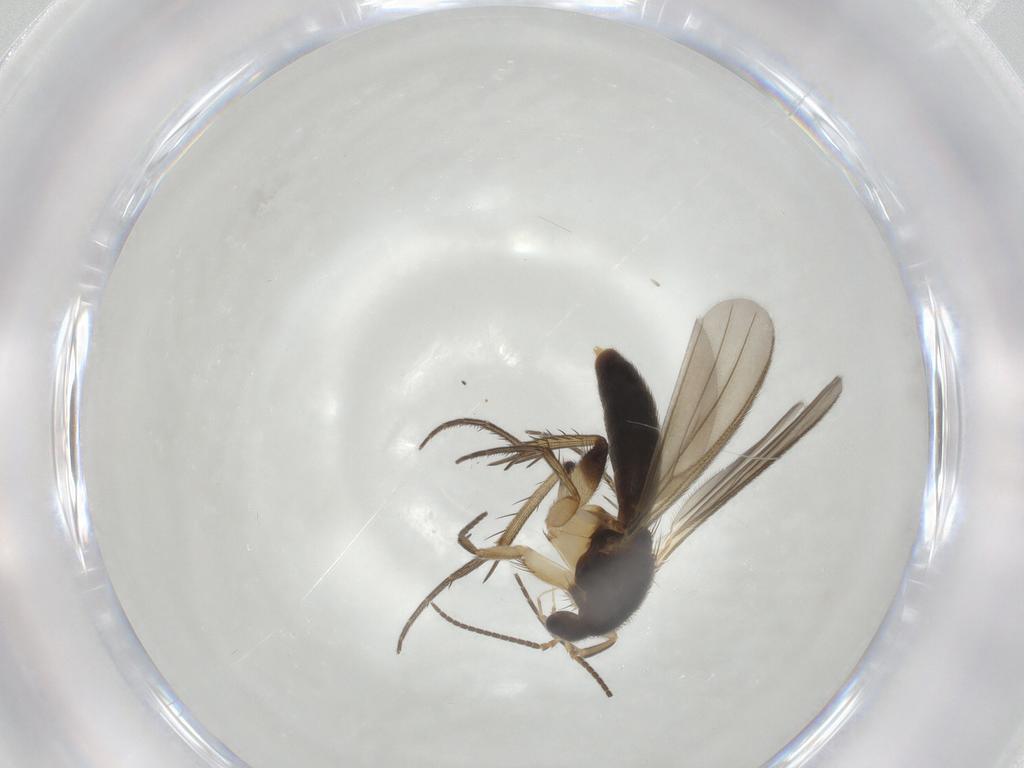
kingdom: Animalia
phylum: Arthropoda
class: Insecta
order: Diptera
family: Mycetophilidae
